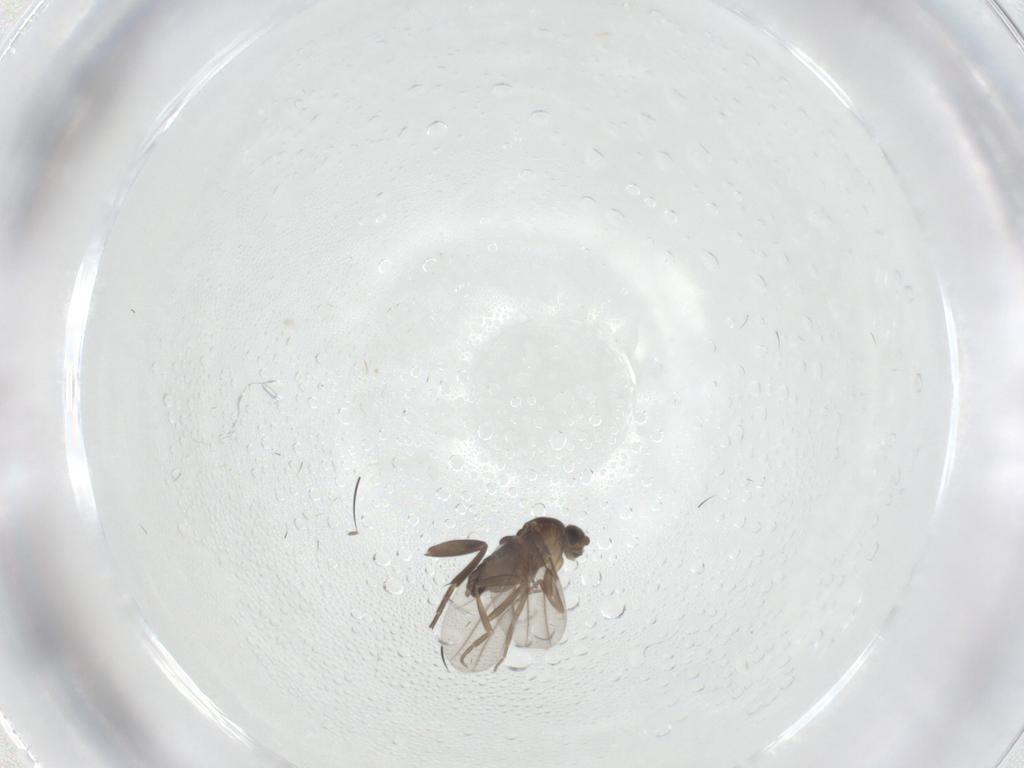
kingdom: Animalia
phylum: Arthropoda
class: Insecta
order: Diptera
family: Cecidomyiidae
